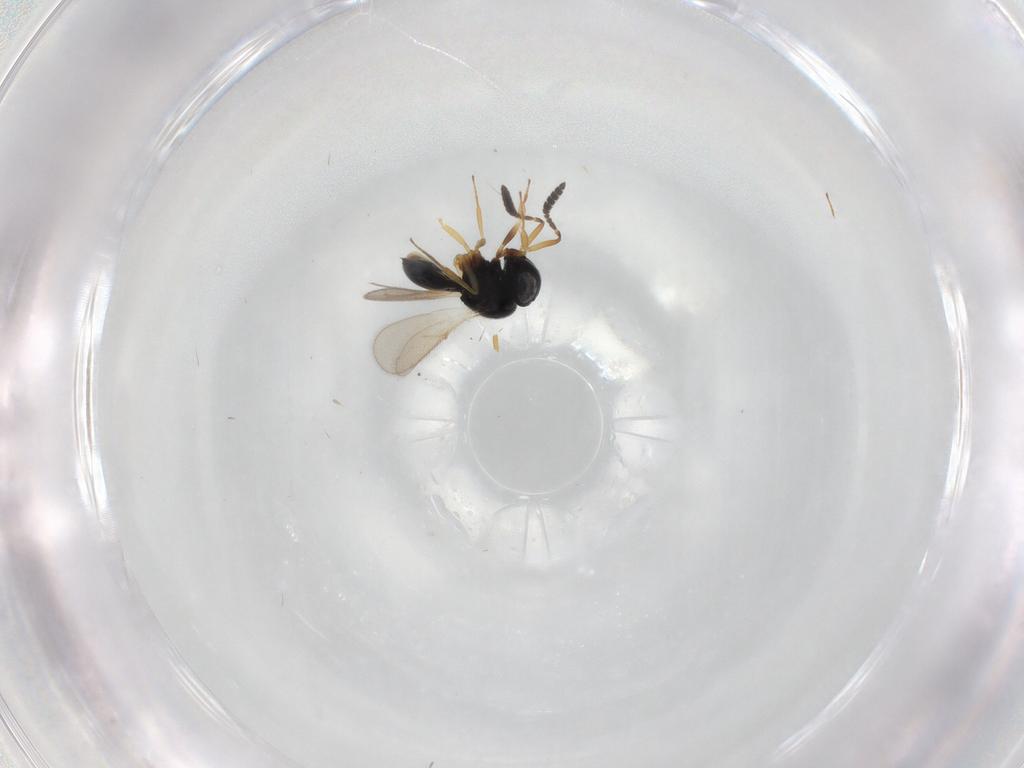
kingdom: Animalia
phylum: Arthropoda
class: Insecta
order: Hymenoptera
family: Scelionidae
